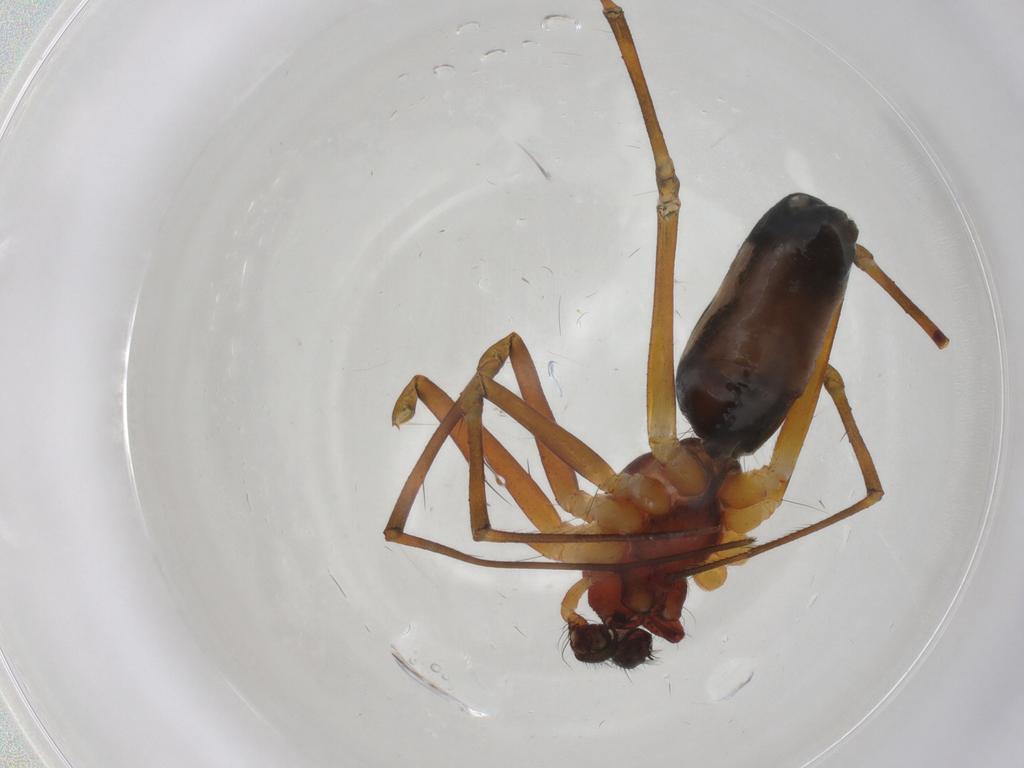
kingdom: Animalia
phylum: Arthropoda
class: Arachnida
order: Araneae
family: Linyphiidae
